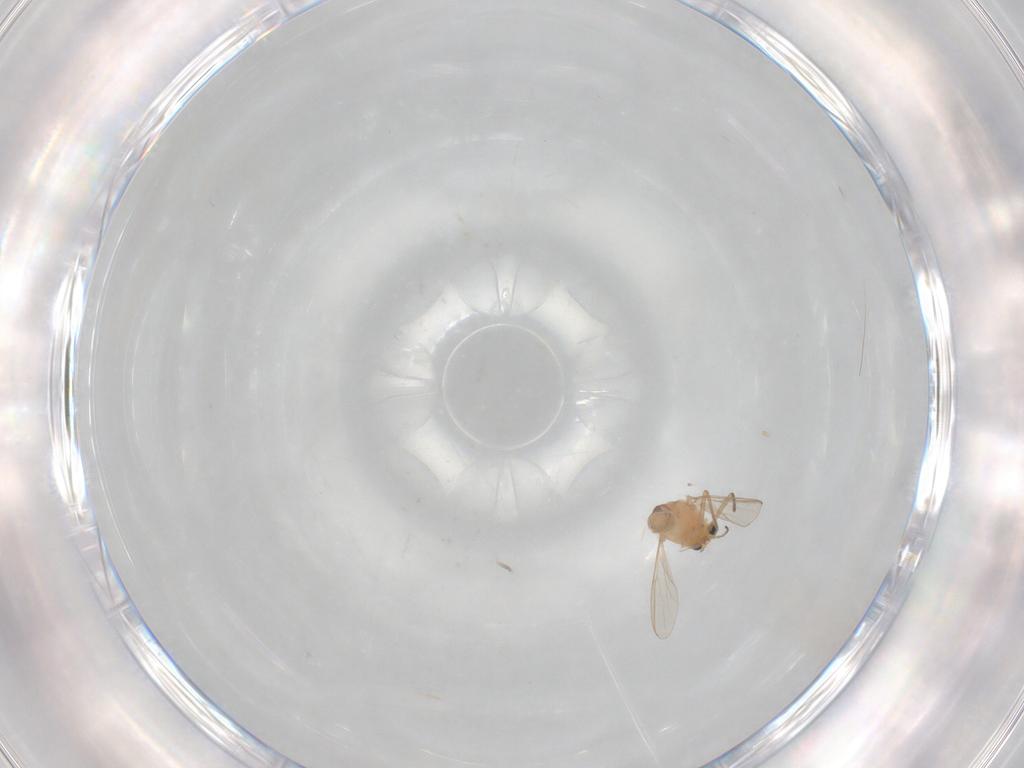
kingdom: Animalia
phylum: Arthropoda
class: Insecta
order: Diptera
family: Chironomidae
